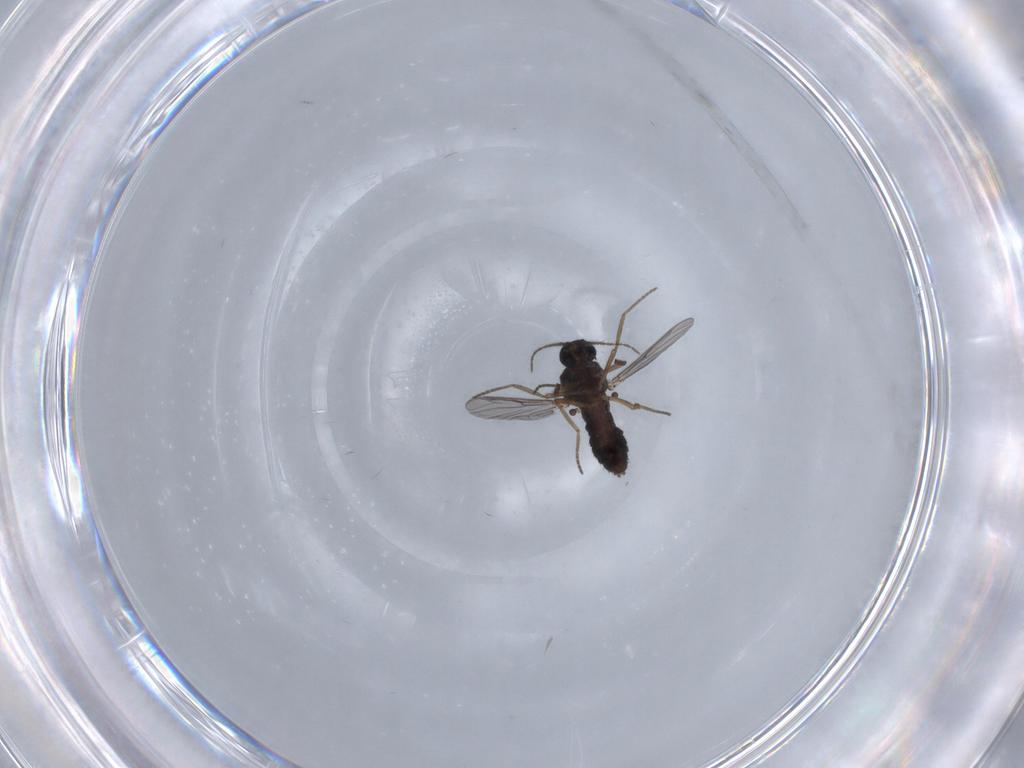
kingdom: Animalia
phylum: Arthropoda
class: Insecta
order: Diptera
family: Ceratopogonidae
